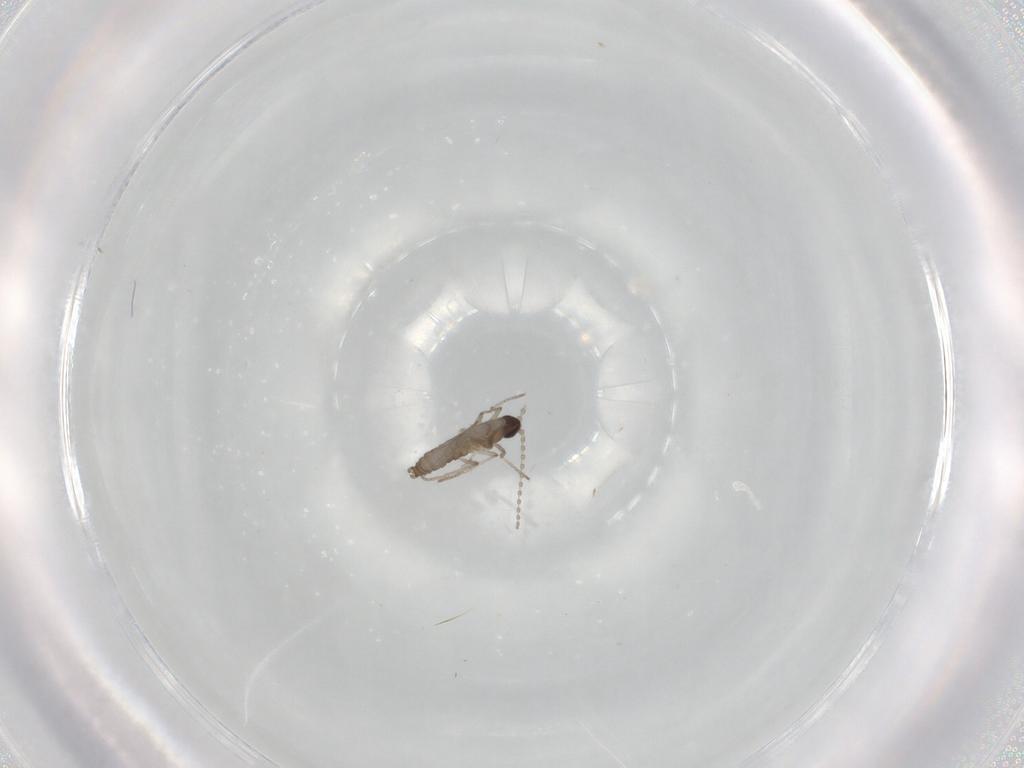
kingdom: Animalia
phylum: Arthropoda
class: Insecta
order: Diptera
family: Cecidomyiidae
